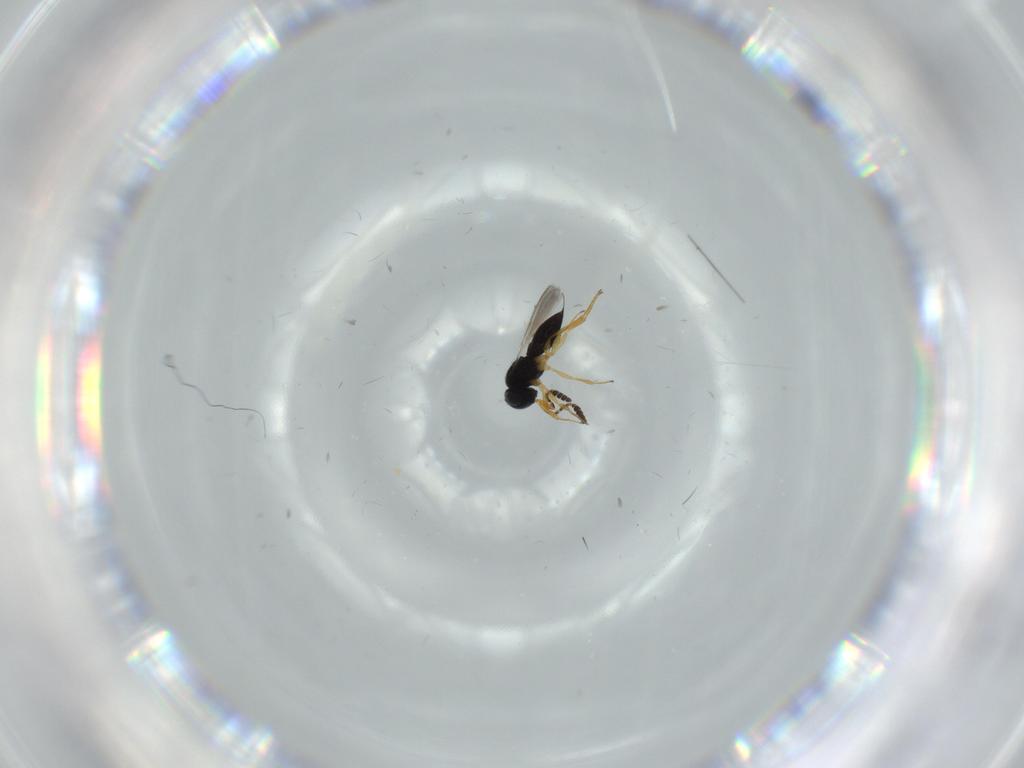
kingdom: Animalia
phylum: Arthropoda
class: Insecta
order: Hymenoptera
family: Scelionidae
